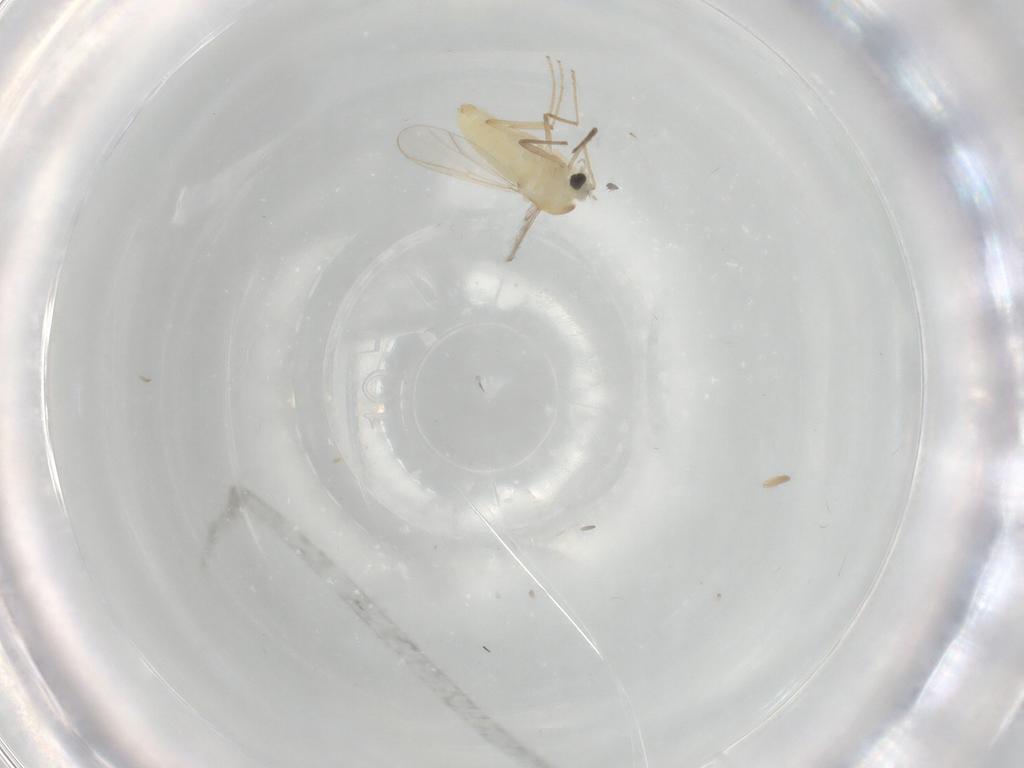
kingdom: Animalia
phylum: Arthropoda
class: Insecta
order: Diptera
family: Chironomidae
